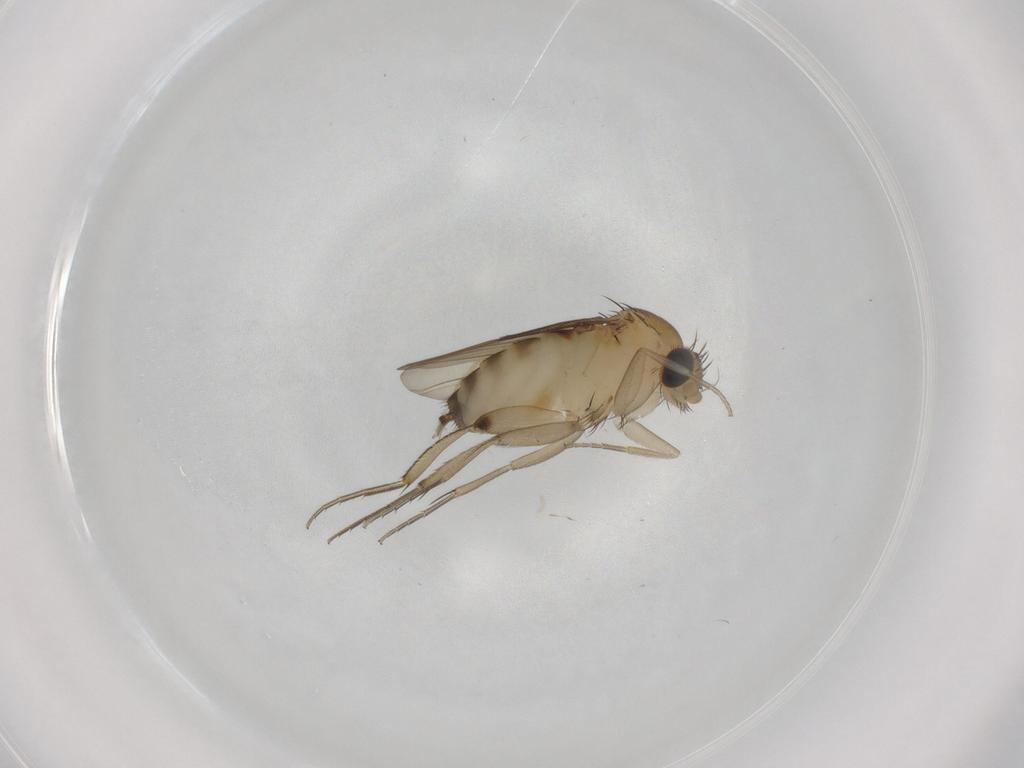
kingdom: Animalia
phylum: Arthropoda
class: Insecta
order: Diptera
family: Phoridae
